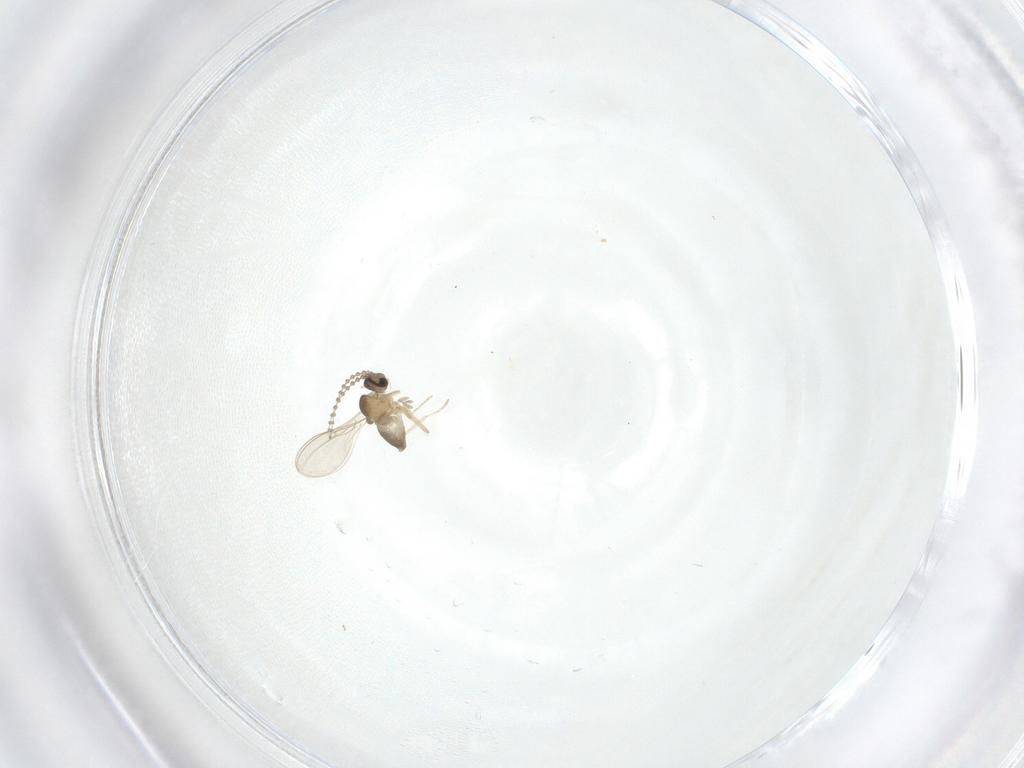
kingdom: Animalia
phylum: Arthropoda
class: Insecta
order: Diptera
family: Cecidomyiidae
